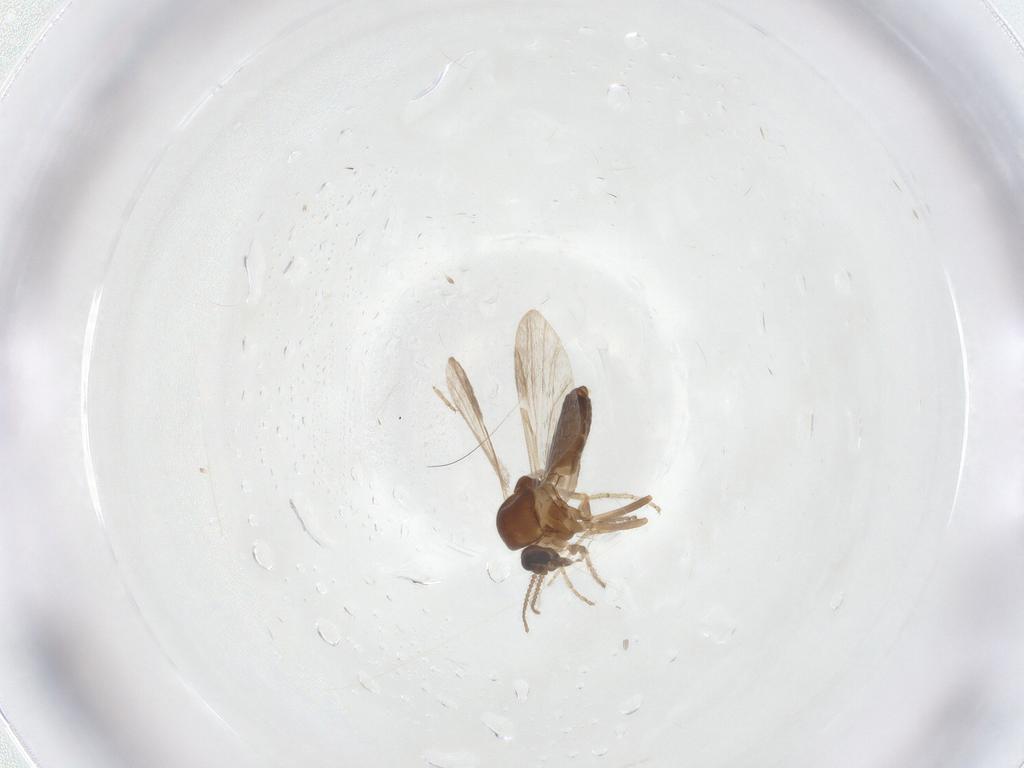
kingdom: Animalia
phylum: Arthropoda
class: Insecta
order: Diptera
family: Ceratopogonidae
